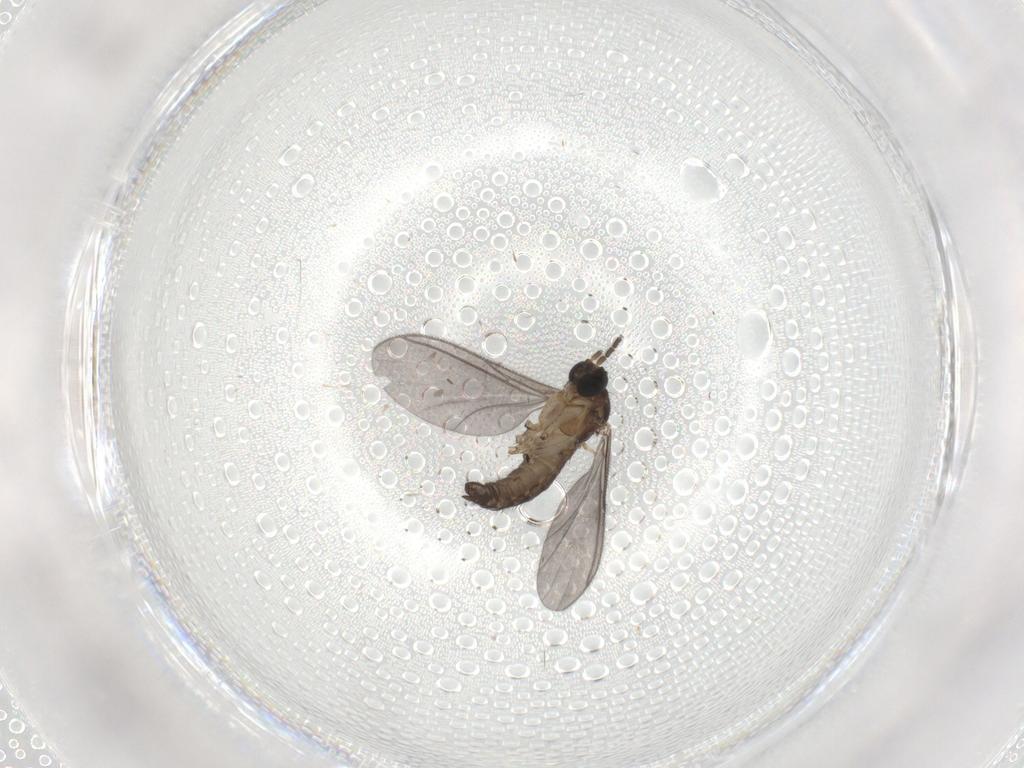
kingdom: Animalia
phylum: Arthropoda
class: Insecta
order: Diptera
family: Sciaridae
